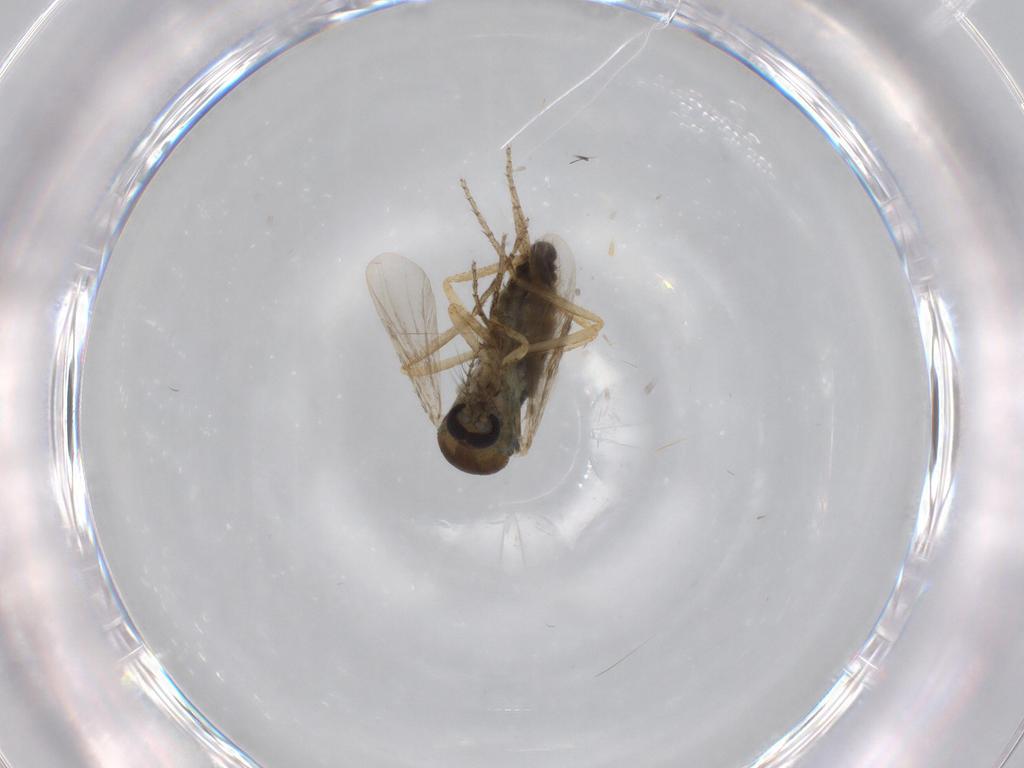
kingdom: Animalia
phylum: Arthropoda
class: Insecta
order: Diptera
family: Ceratopogonidae
